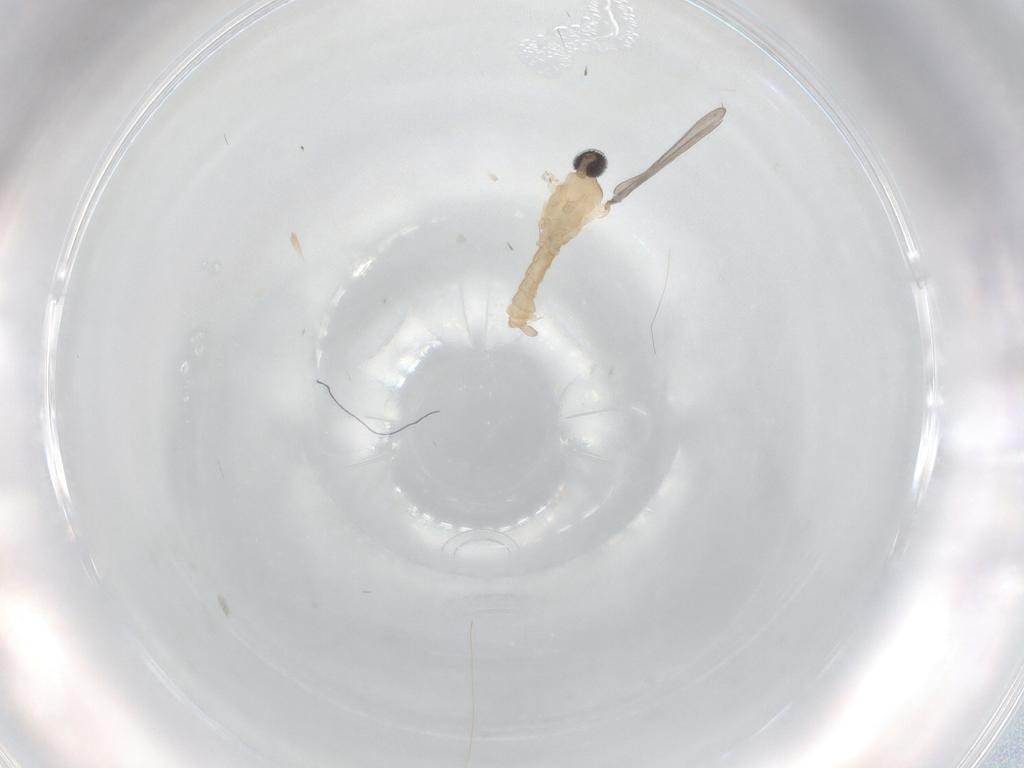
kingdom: Animalia
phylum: Arthropoda
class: Insecta
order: Diptera
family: Cecidomyiidae
